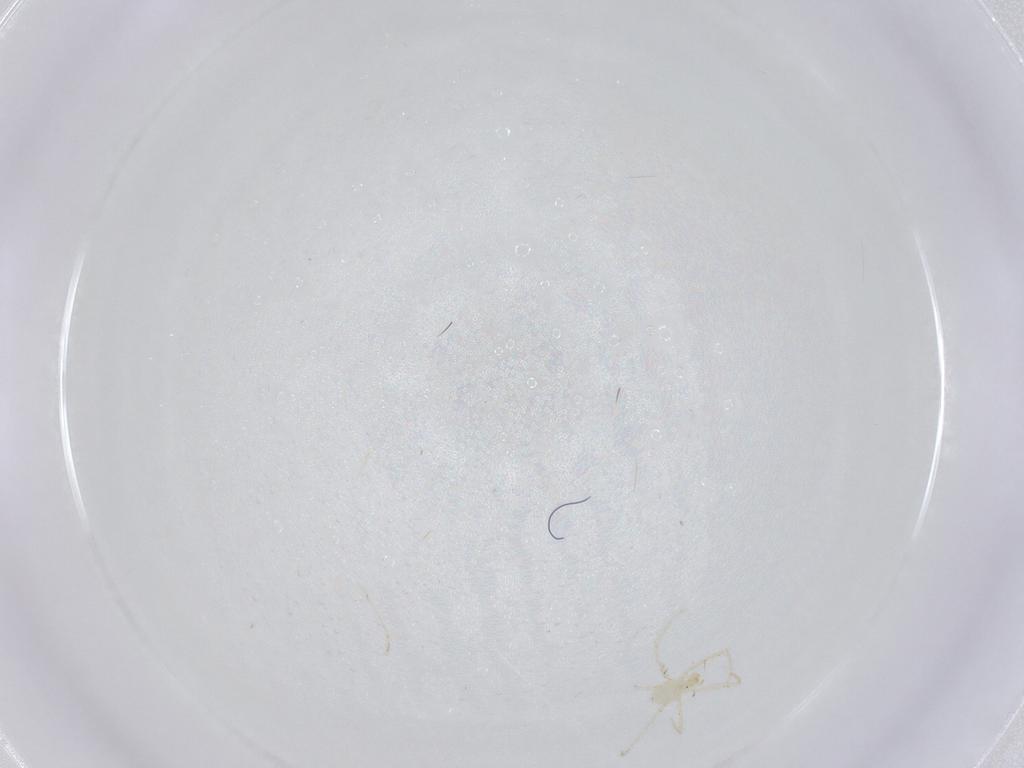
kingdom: Animalia
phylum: Arthropoda
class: Arachnida
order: Trombidiformes
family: Erythraeidae
